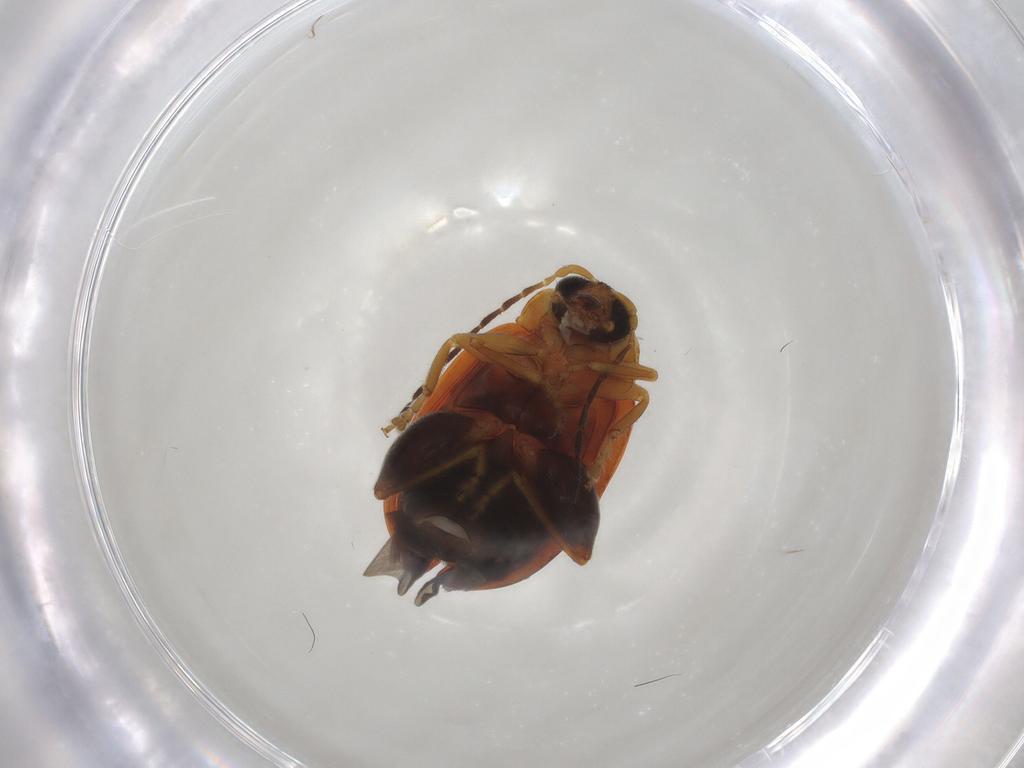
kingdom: Animalia
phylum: Arthropoda
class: Insecta
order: Coleoptera
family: Chrysomelidae
